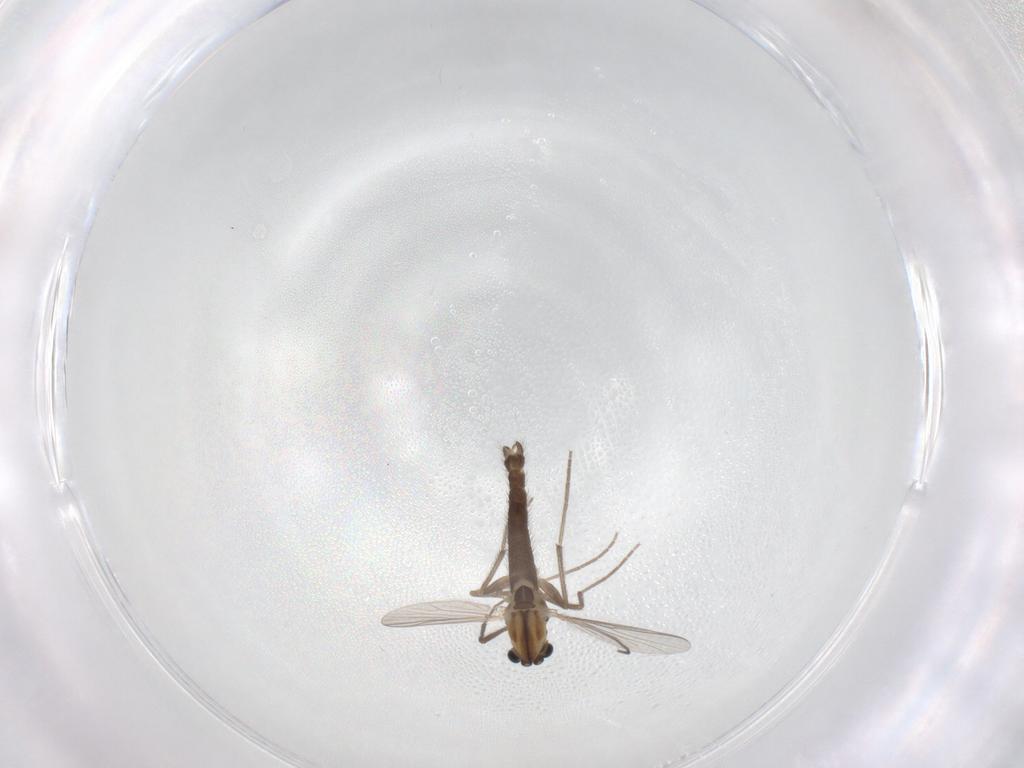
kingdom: Animalia
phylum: Arthropoda
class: Insecta
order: Diptera
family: Chironomidae
